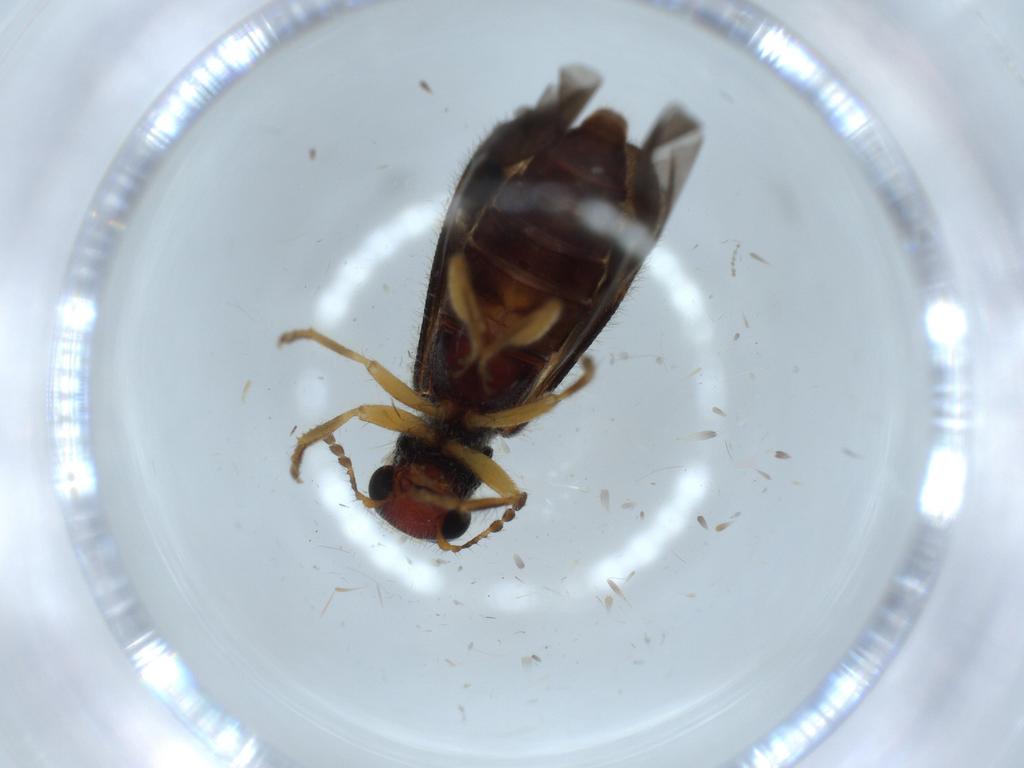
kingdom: Animalia
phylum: Arthropoda
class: Insecta
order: Coleoptera
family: Cleridae
